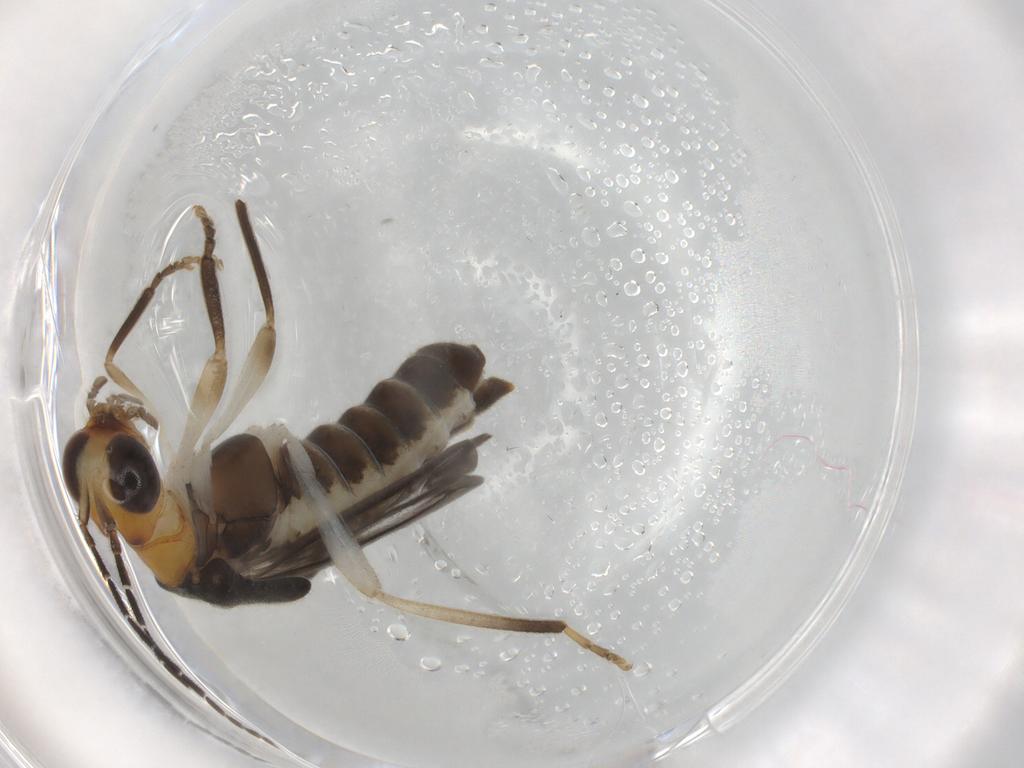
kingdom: Animalia
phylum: Arthropoda
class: Insecta
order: Coleoptera
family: Cantharidae
